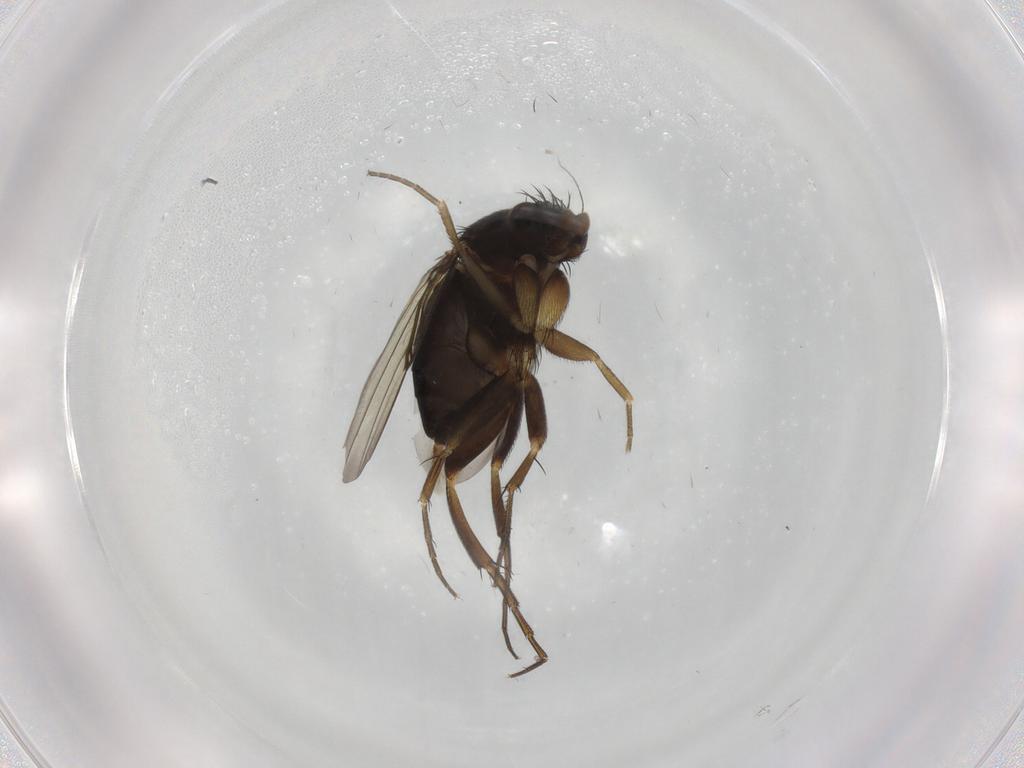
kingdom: Animalia
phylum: Arthropoda
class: Insecta
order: Diptera
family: Phoridae
